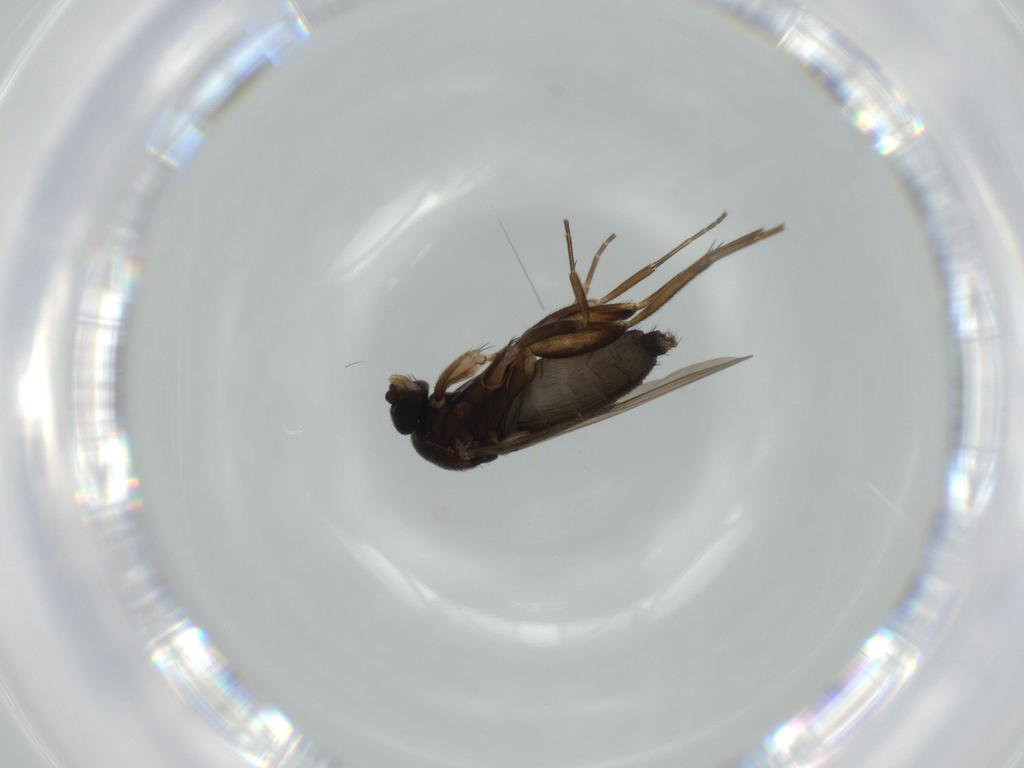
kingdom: Animalia
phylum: Arthropoda
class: Insecta
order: Diptera
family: Phoridae
